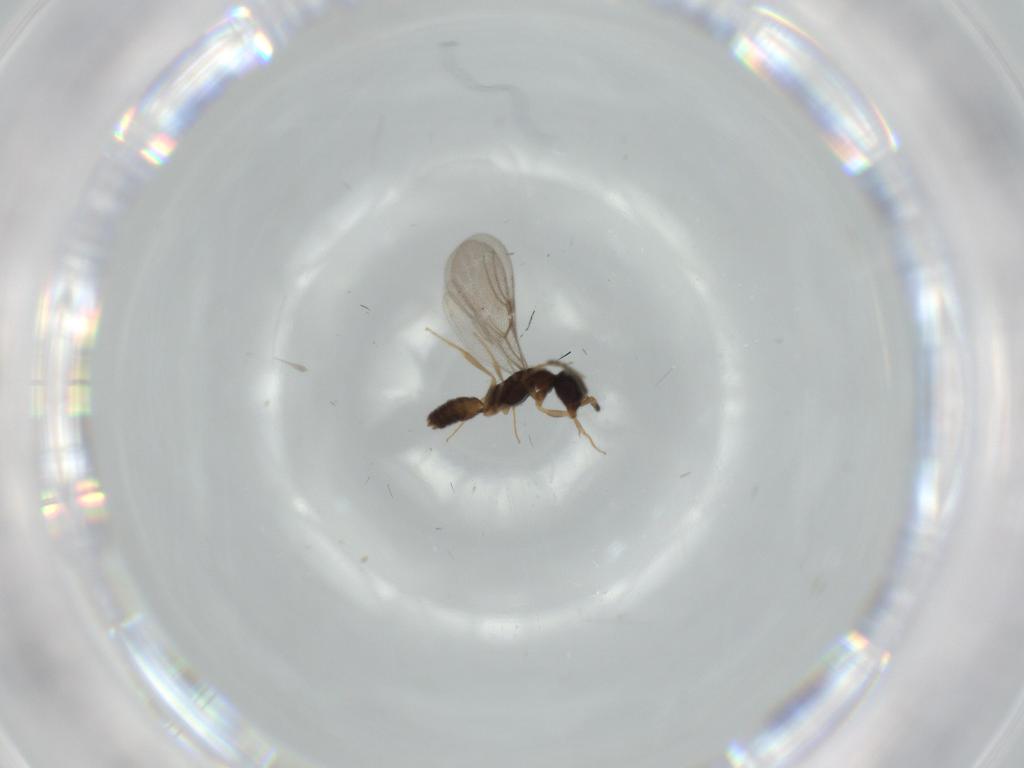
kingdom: Animalia
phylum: Arthropoda
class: Insecta
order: Hymenoptera
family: Bethylidae
